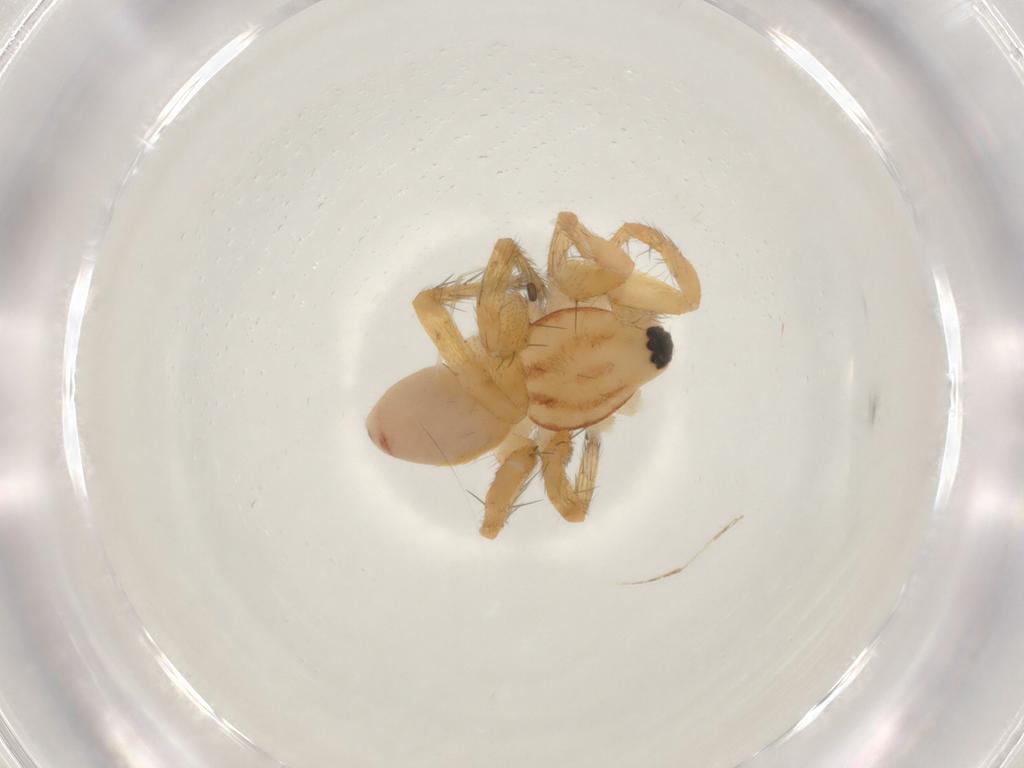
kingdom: Animalia
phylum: Arthropoda
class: Arachnida
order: Araneae
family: Corinnidae
